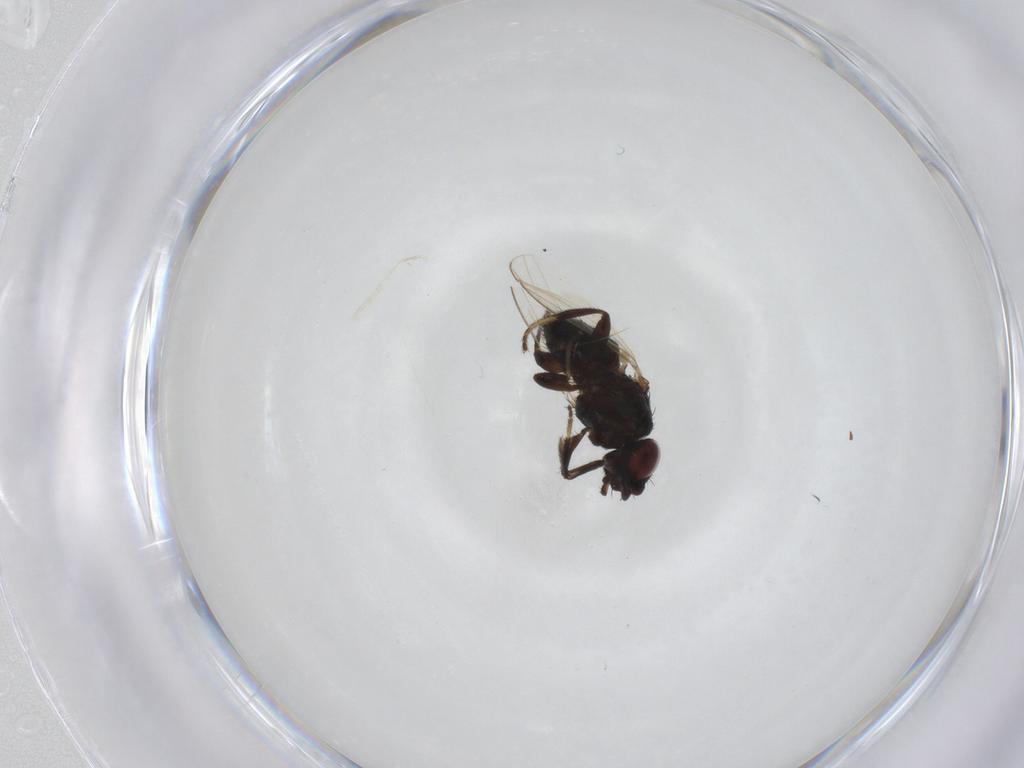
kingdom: Animalia
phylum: Arthropoda
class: Insecta
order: Diptera
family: Milichiidae
